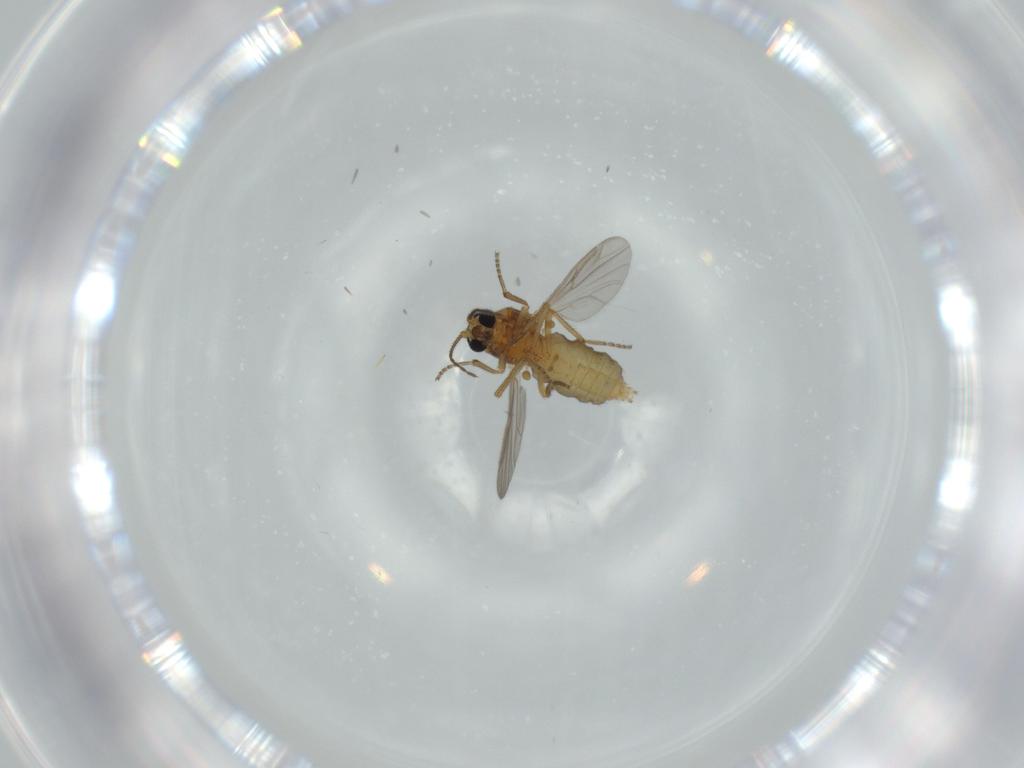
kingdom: Animalia
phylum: Arthropoda
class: Insecta
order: Diptera
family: Ceratopogonidae
